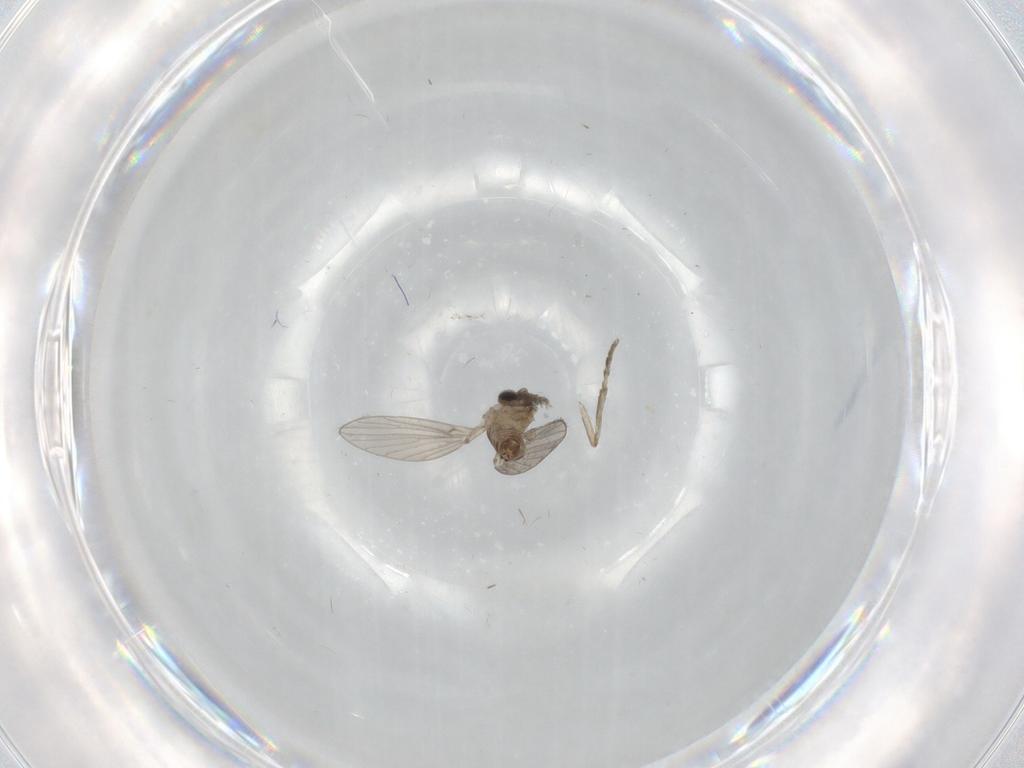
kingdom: Animalia
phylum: Arthropoda
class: Insecta
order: Diptera
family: Psychodidae
